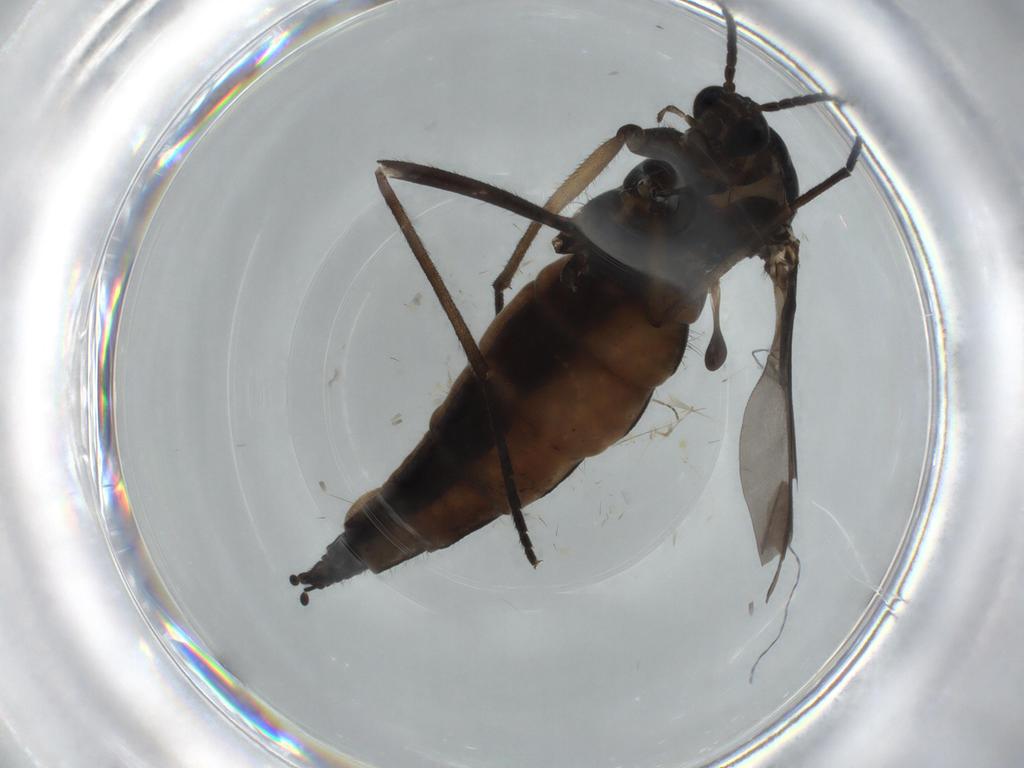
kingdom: Animalia
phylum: Arthropoda
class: Insecta
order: Diptera
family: Sciaridae
